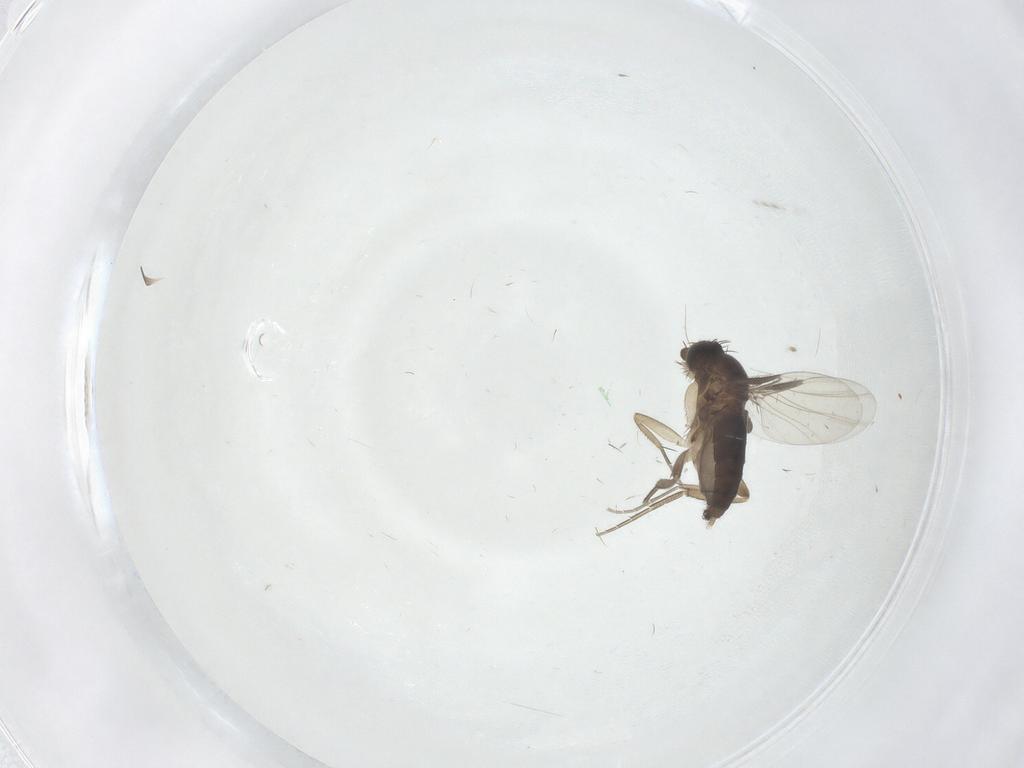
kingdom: Animalia
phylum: Arthropoda
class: Insecta
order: Diptera
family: Phoridae
